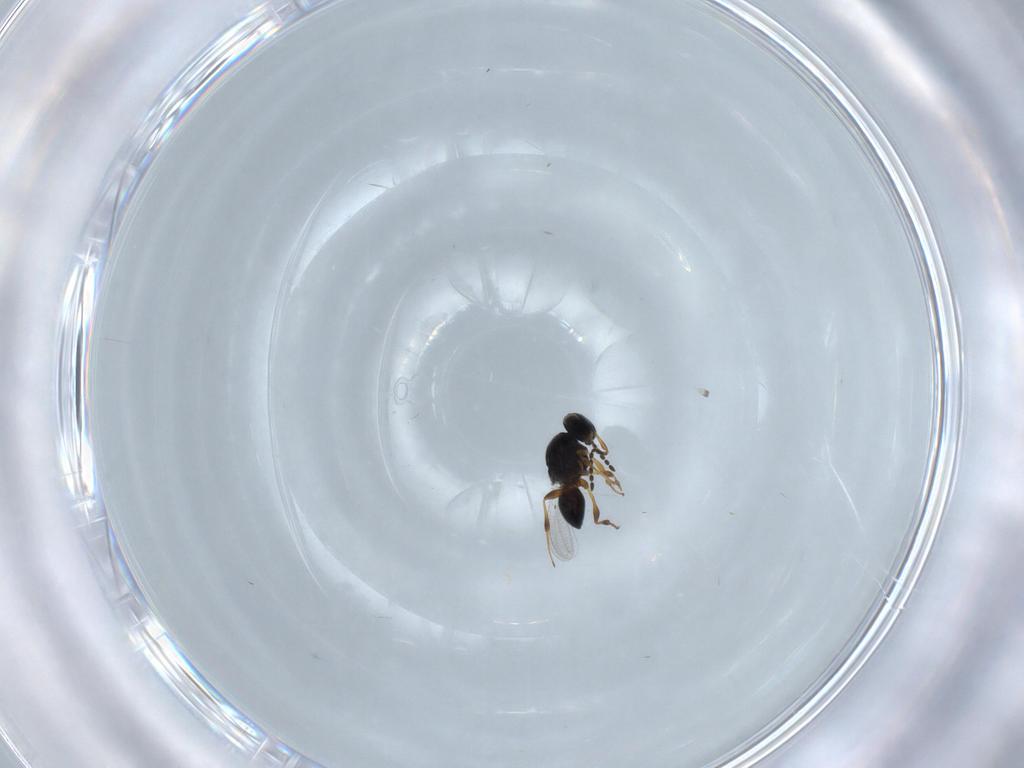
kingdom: Animalia
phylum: Arthropoda
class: Insecta
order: Hymenoptera
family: Platygastridae
